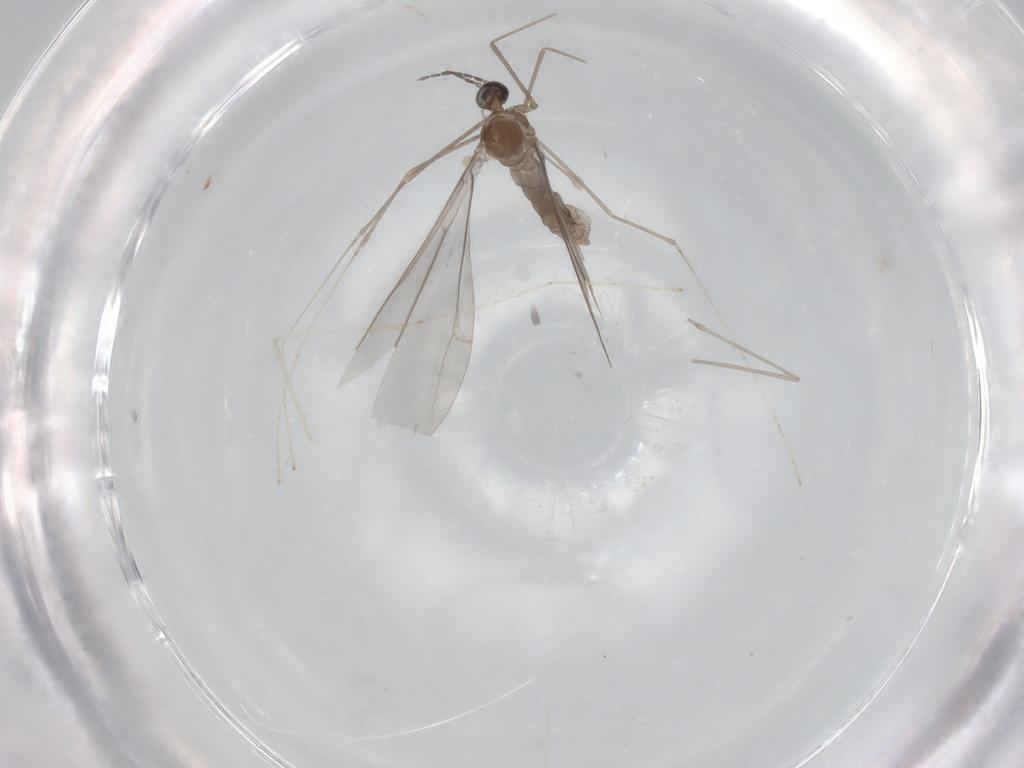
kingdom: Animalia
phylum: Arthropoda
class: Insecta
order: Diptera
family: Cecidomyiidae
